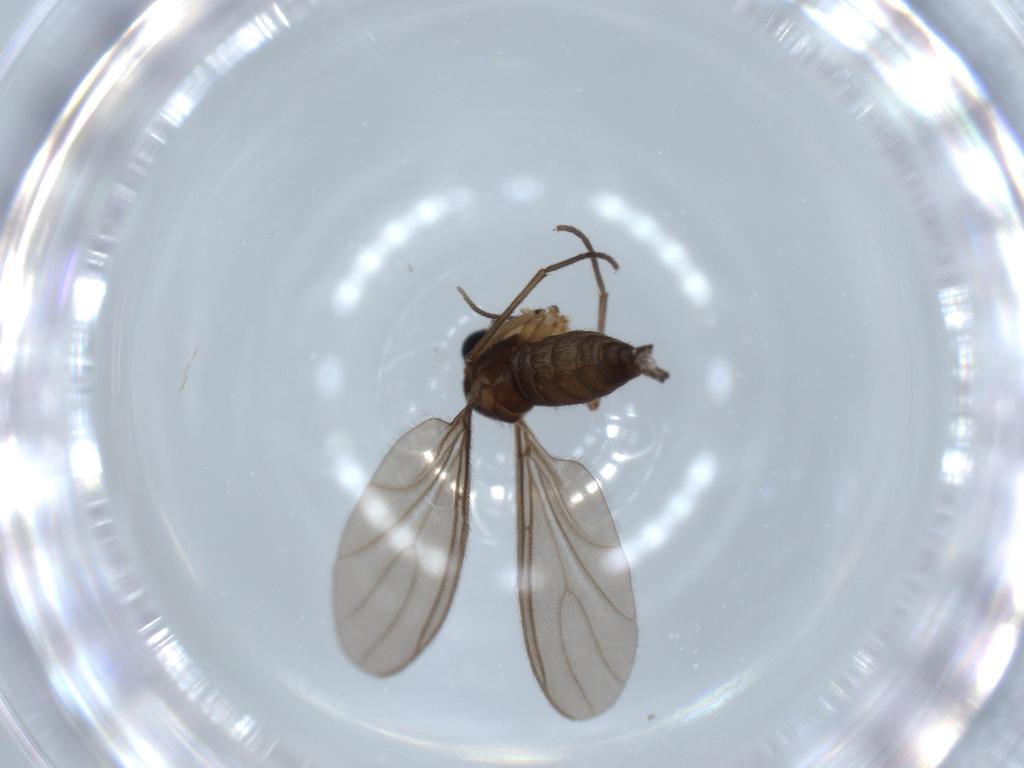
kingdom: Animalia
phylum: Arthropoda
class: Insecta
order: Diptera
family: Sciaridae
